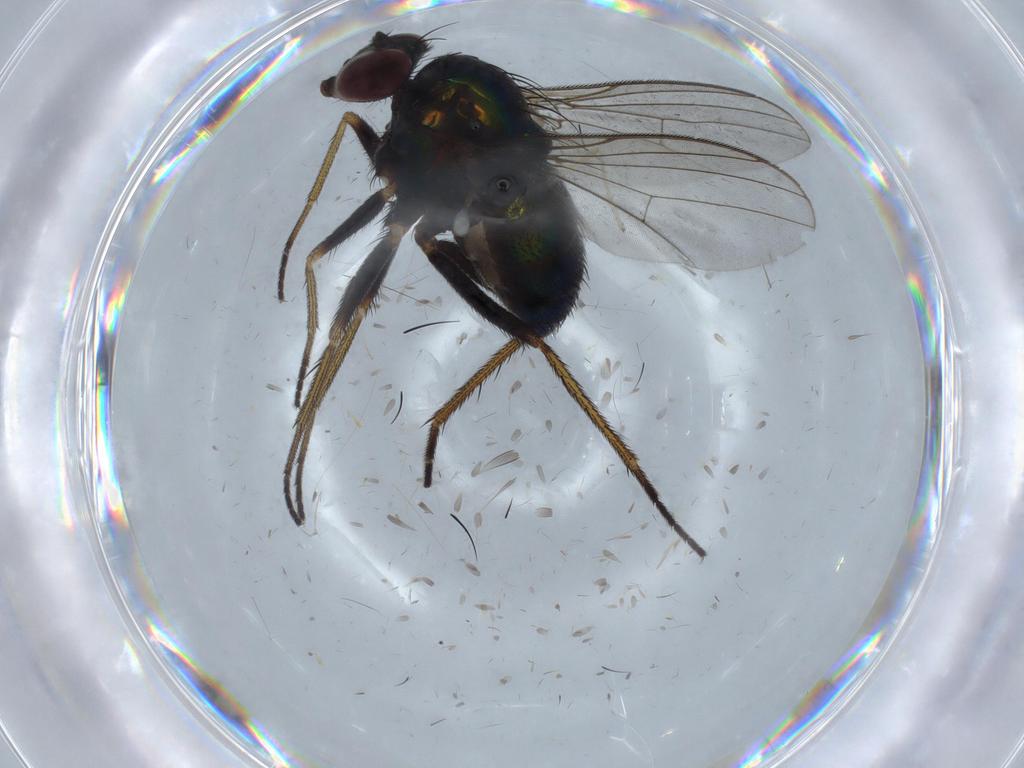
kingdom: Animalia
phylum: Arthropoda
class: Insecta
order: Diptera
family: Dolichopodidae
